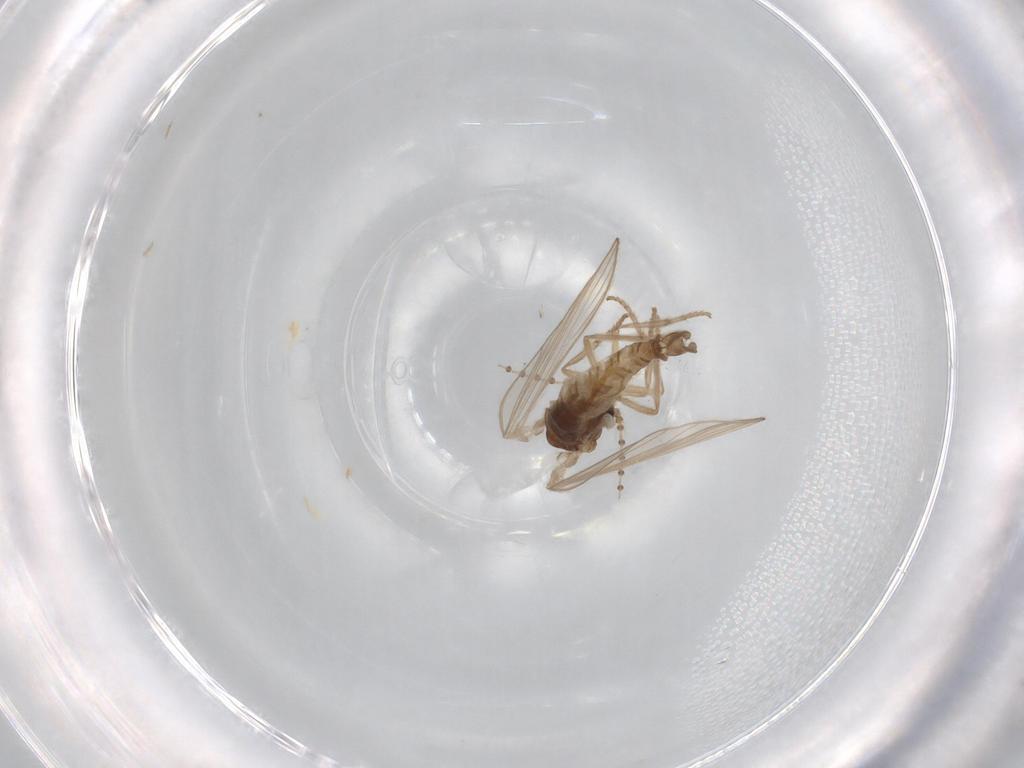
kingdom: Animalia
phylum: Arthropoda
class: Insecta
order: Diptera
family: Psychodidae
